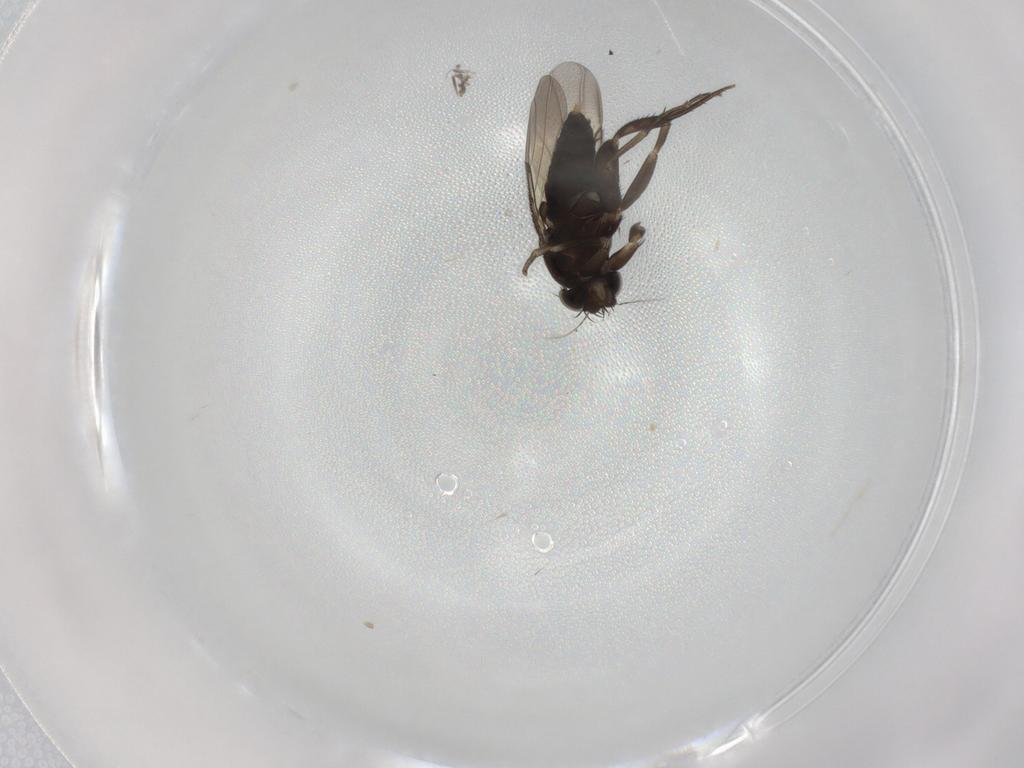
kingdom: Animalia
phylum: Arthropoda
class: Insecta
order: Diptera
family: Phoridae
